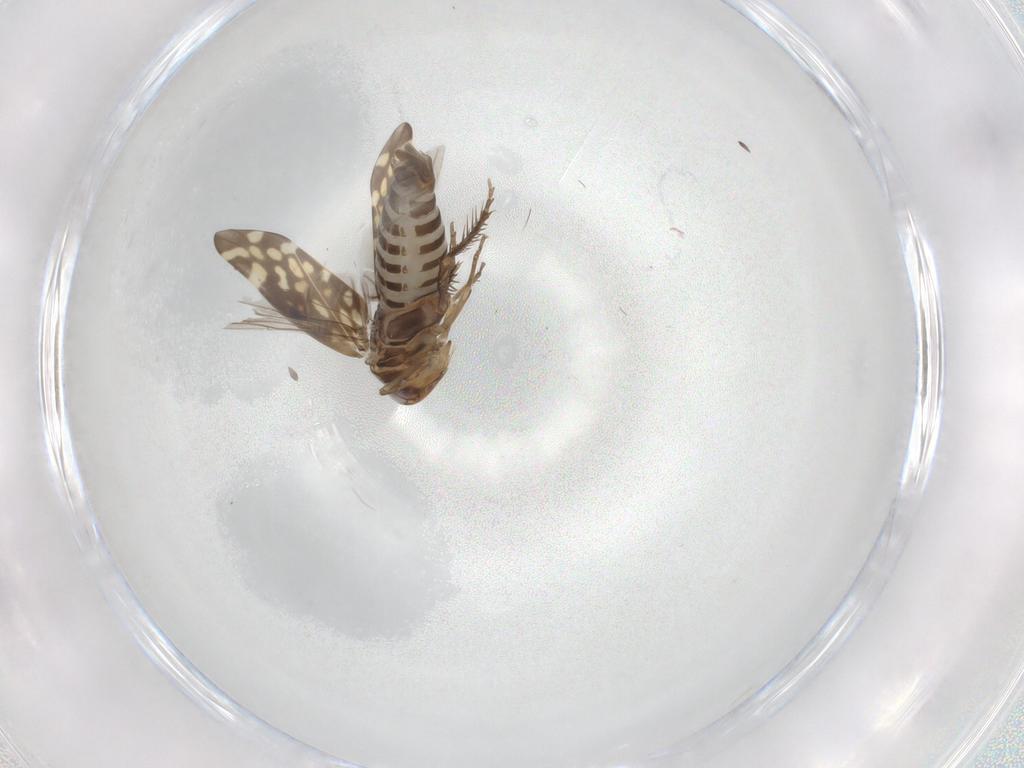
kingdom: Animalia
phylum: Arthropoda
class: Insecta
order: Hemiptera
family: Cicadellidae
